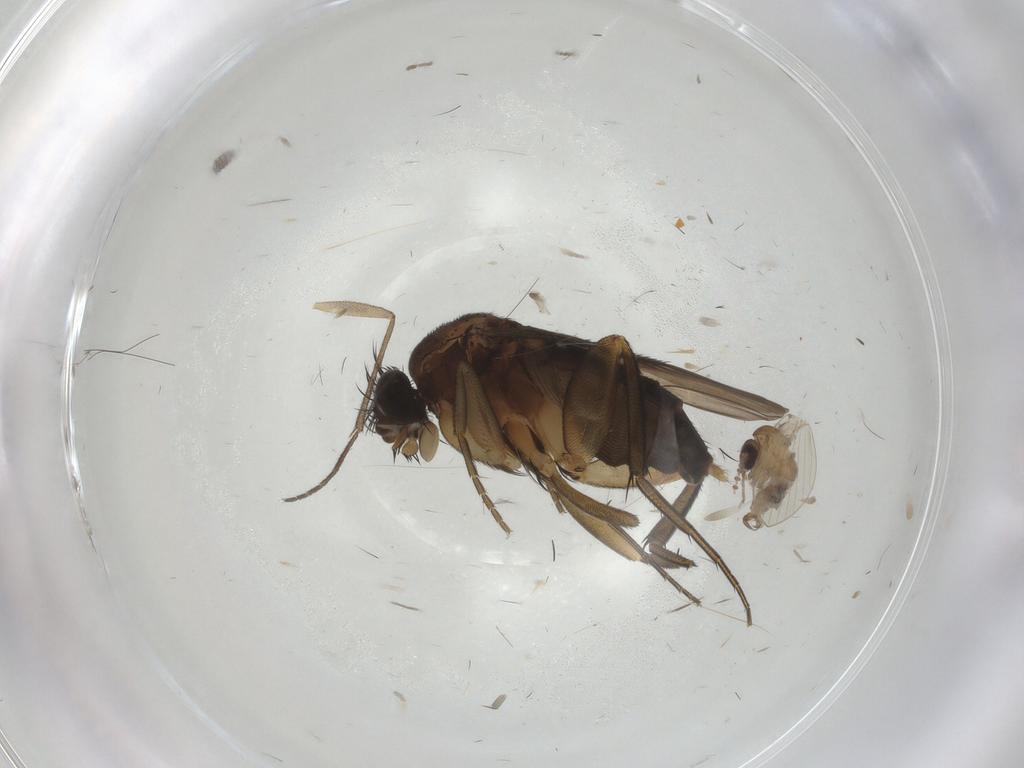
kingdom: Animalia
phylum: Arthropoda
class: Insecta
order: Diptera
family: Phoridae
